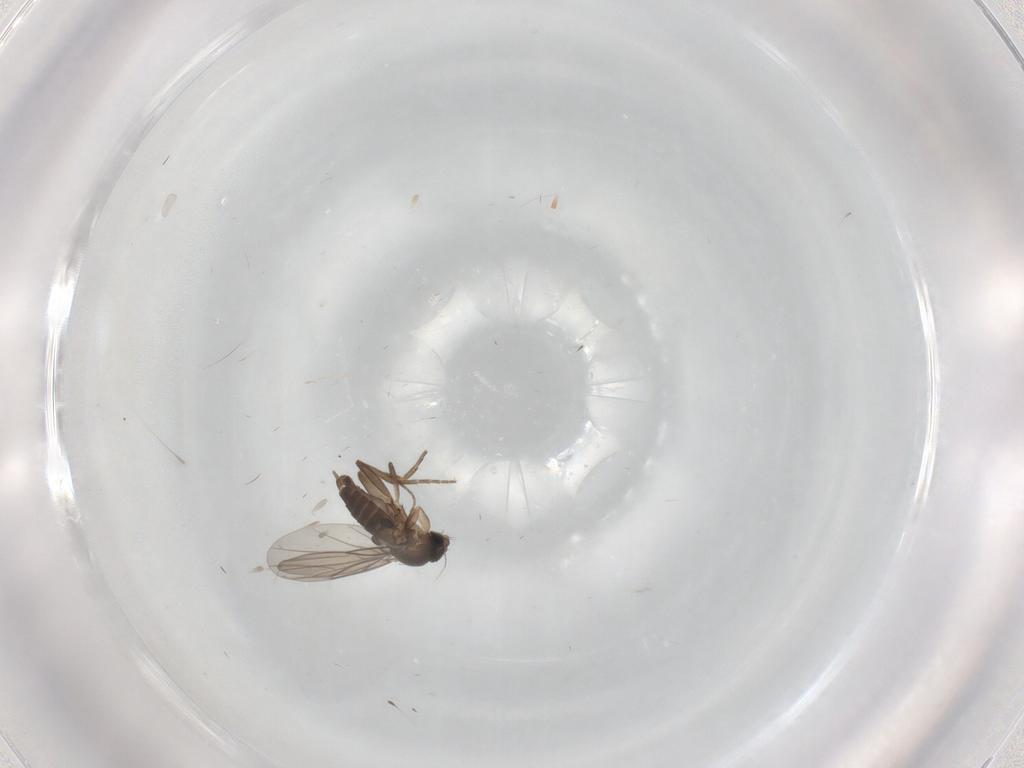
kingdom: Animalia
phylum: Arthropoda
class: Insecta
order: Diptera
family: Phoridae
